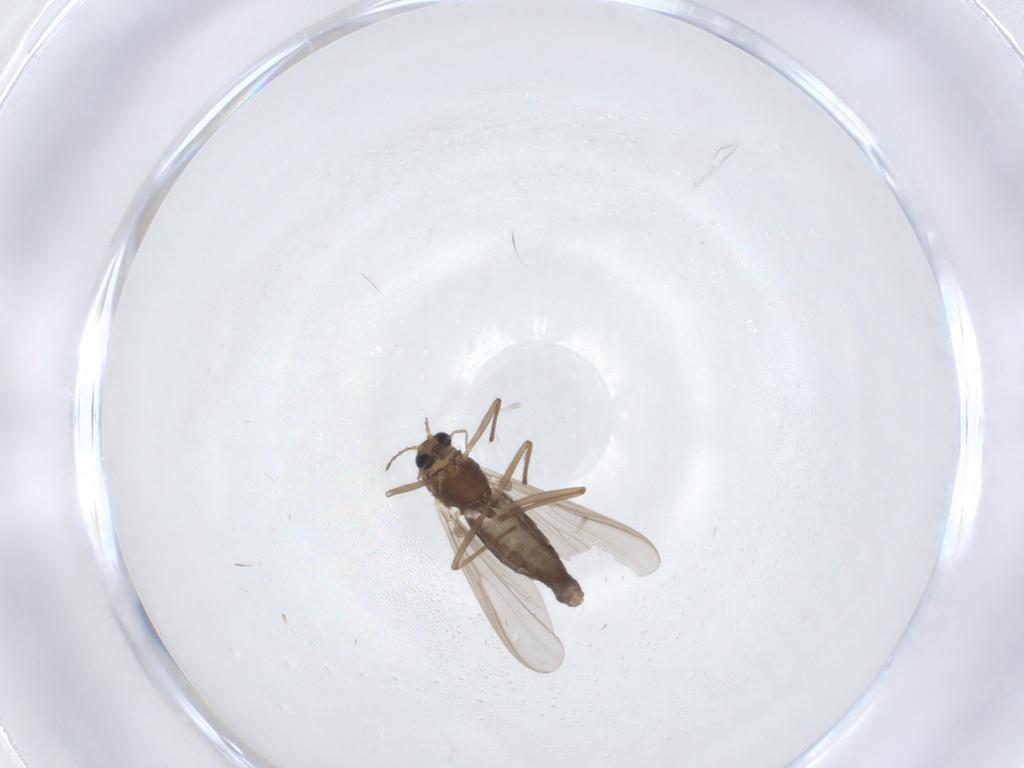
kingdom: Animalia
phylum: Arthropoda
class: Insecta
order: Diptera
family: Chironomidae
